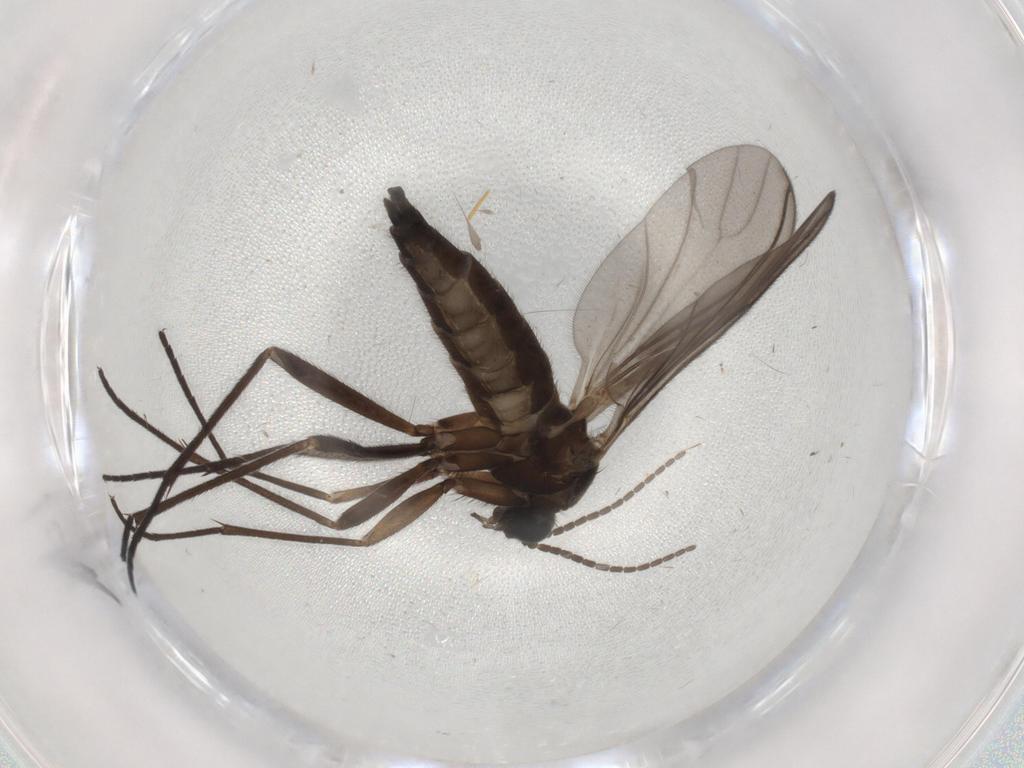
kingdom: Animalia
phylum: Arthropoda
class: Insecta
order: Diptera
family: Sciaridae
